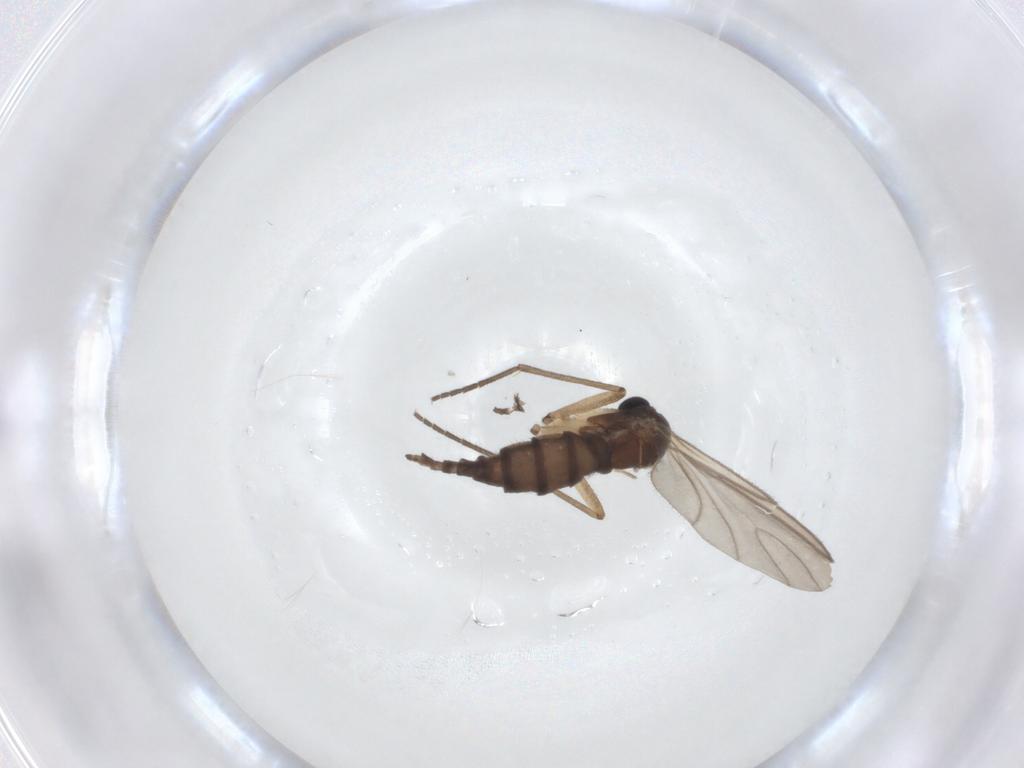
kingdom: Animalia
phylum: Arthropoda
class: Insecta
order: Diptera
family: Sciaridae
